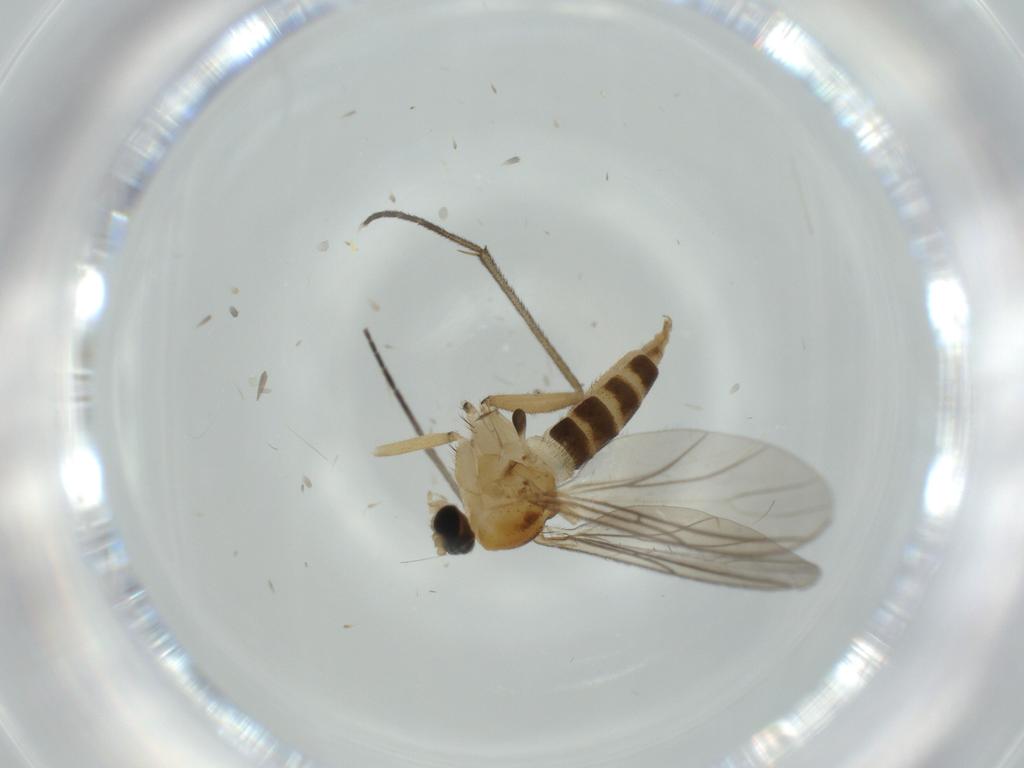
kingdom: Animalia
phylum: Arthropoda
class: Insecta
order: Diptera
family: Sciaridae
